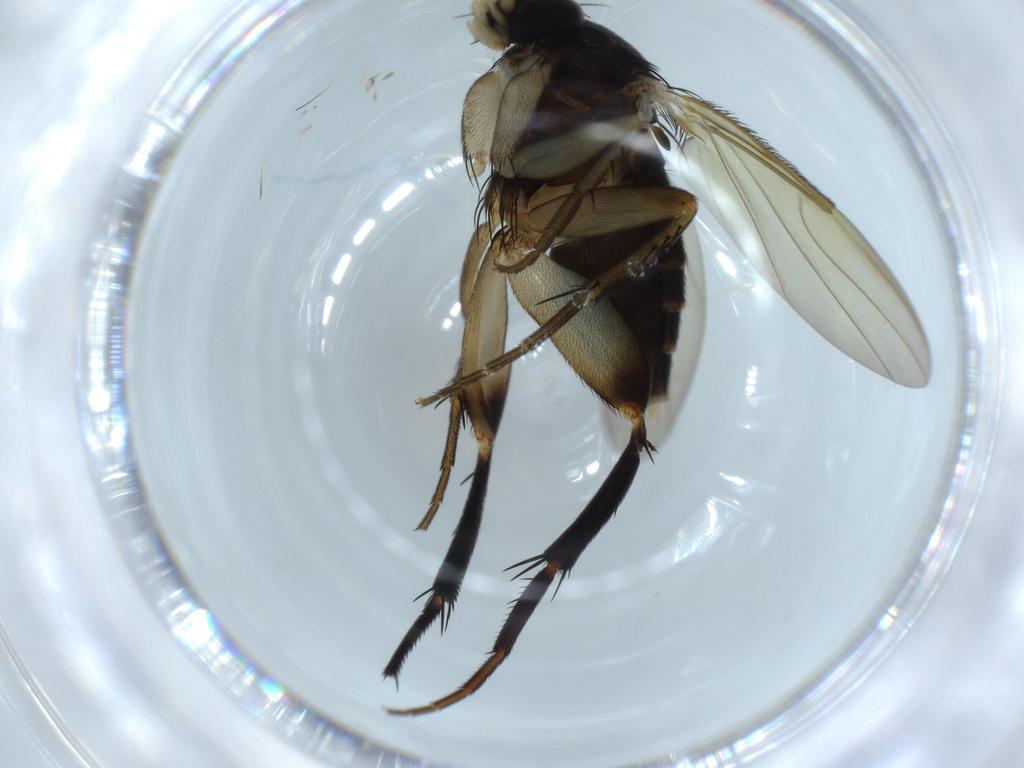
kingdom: Animalia
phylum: Arthropoda
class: Insecta
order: Diptera
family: Phoridae
